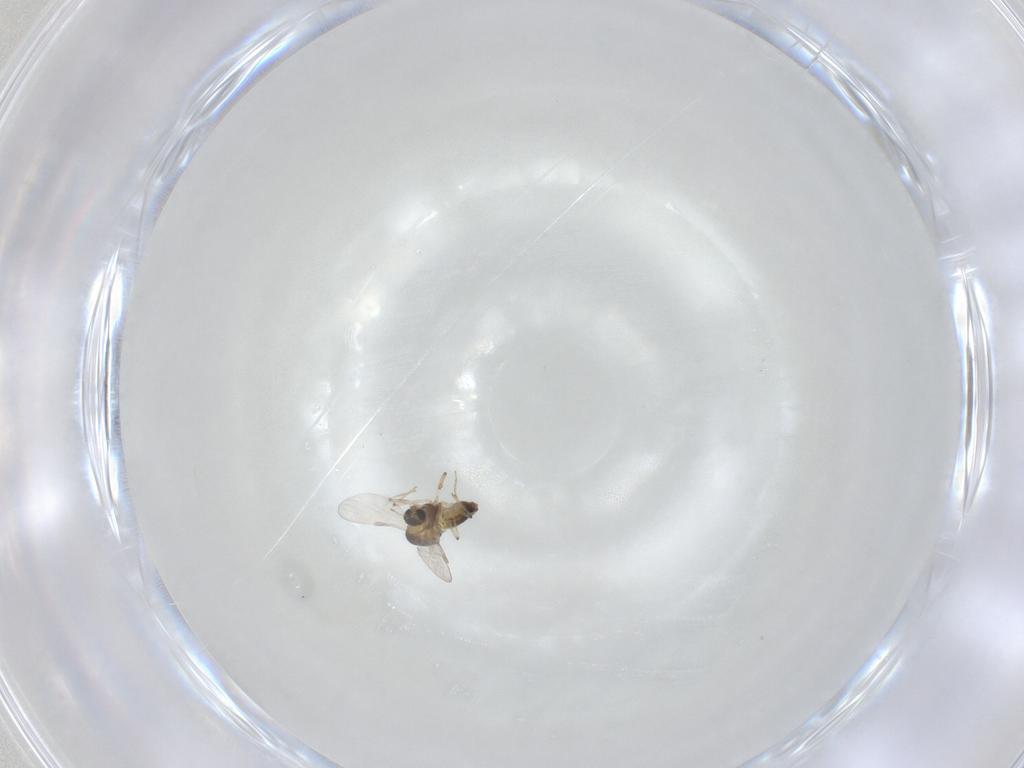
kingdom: Animalia
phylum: Arthropoda
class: Insecta
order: Diptera
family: Chironomidae
